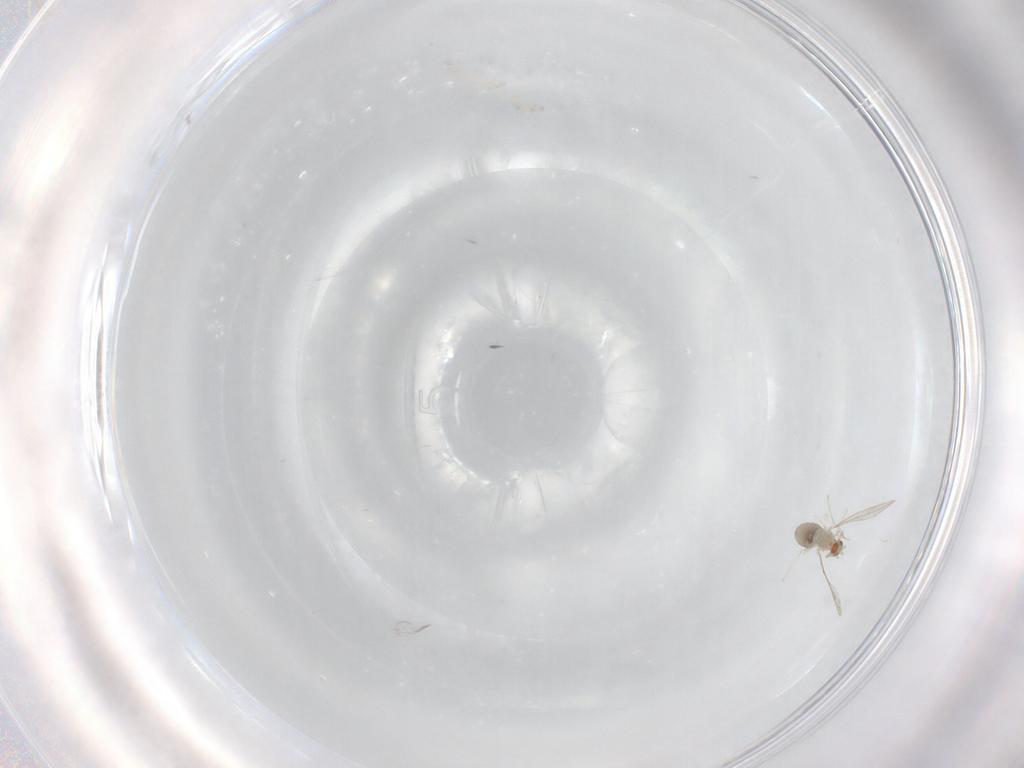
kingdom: Animalia
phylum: Arthropoda
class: Insecta
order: Diptera
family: Cecidomyiidae
